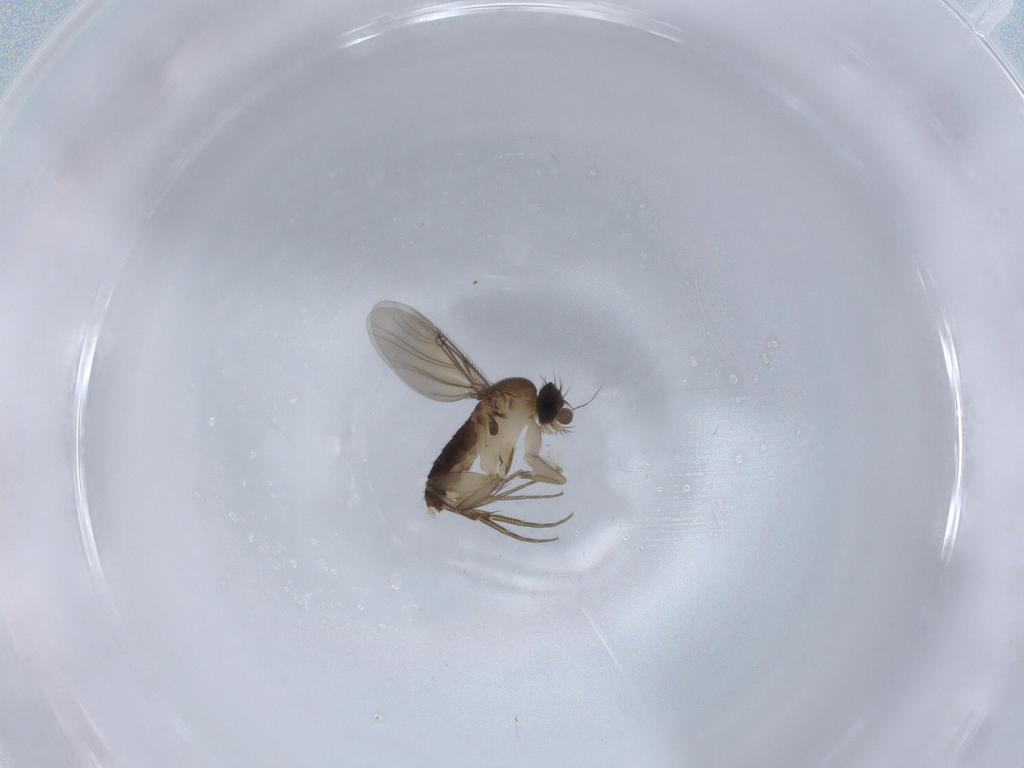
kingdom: Animalia
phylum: Arthropoda
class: Insecta
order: Diptera
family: Phoridae
